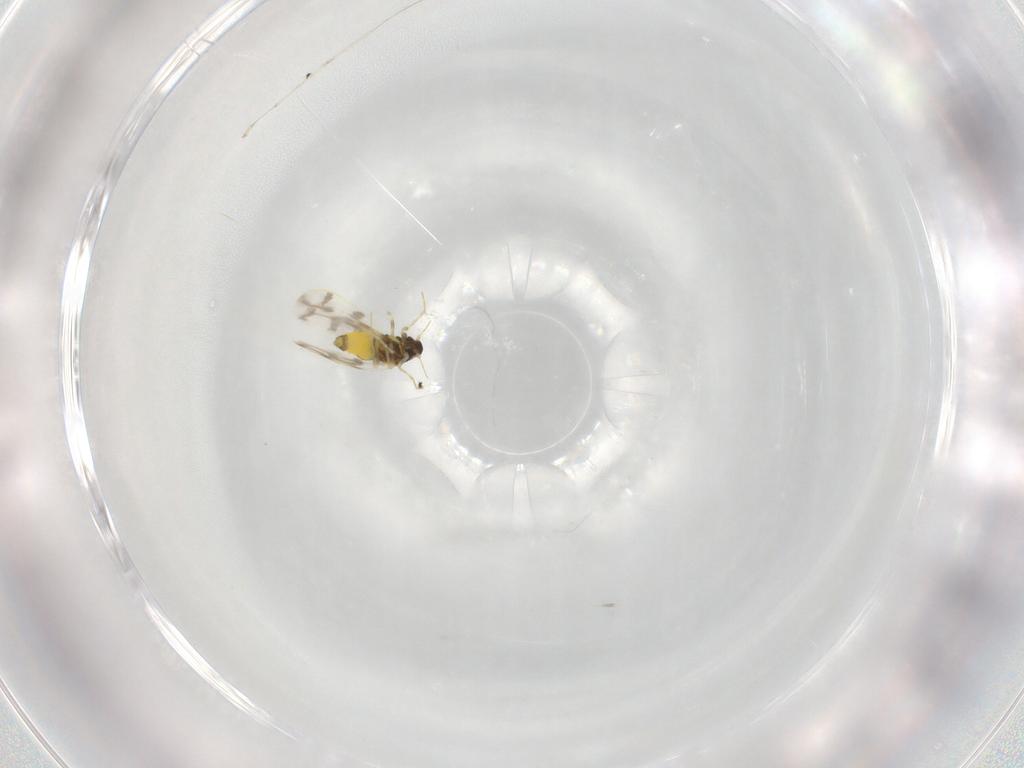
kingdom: Animalia
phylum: Arthropoda
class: Insecta
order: Hemiptera
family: Aleyrodidae
